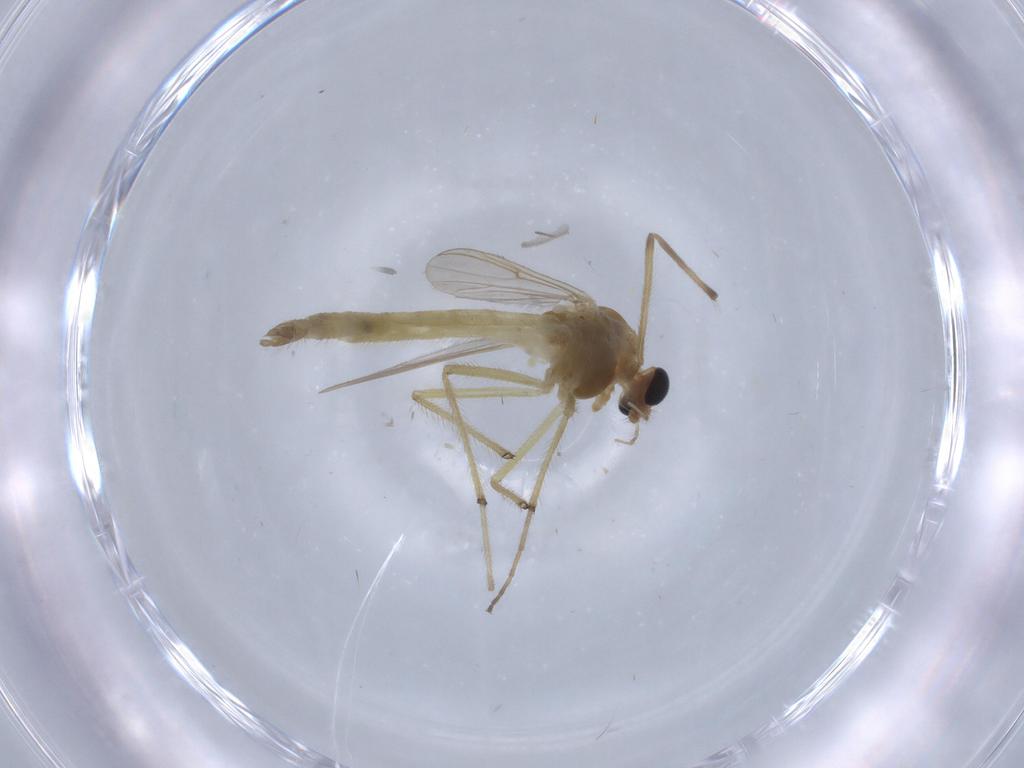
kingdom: Animalia
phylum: Arthropoda
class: Insecta
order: Diptera
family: Chironomidae
